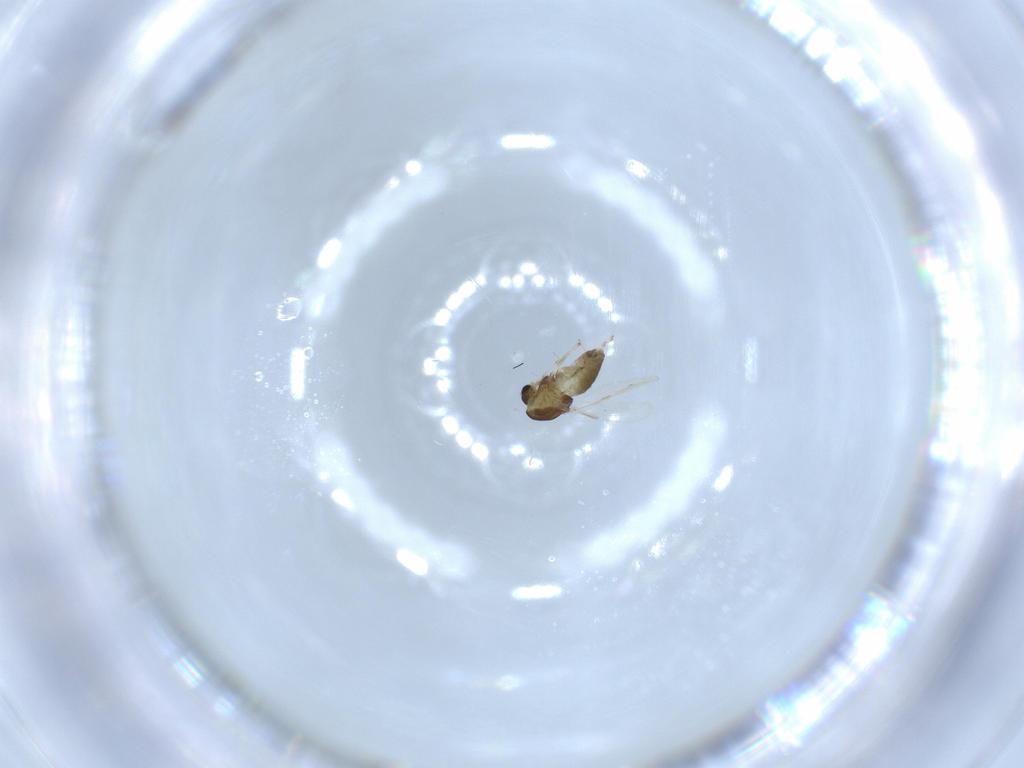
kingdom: Animalia
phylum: Arthropoda
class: Insecta
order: Diptera
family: Chironomidae
